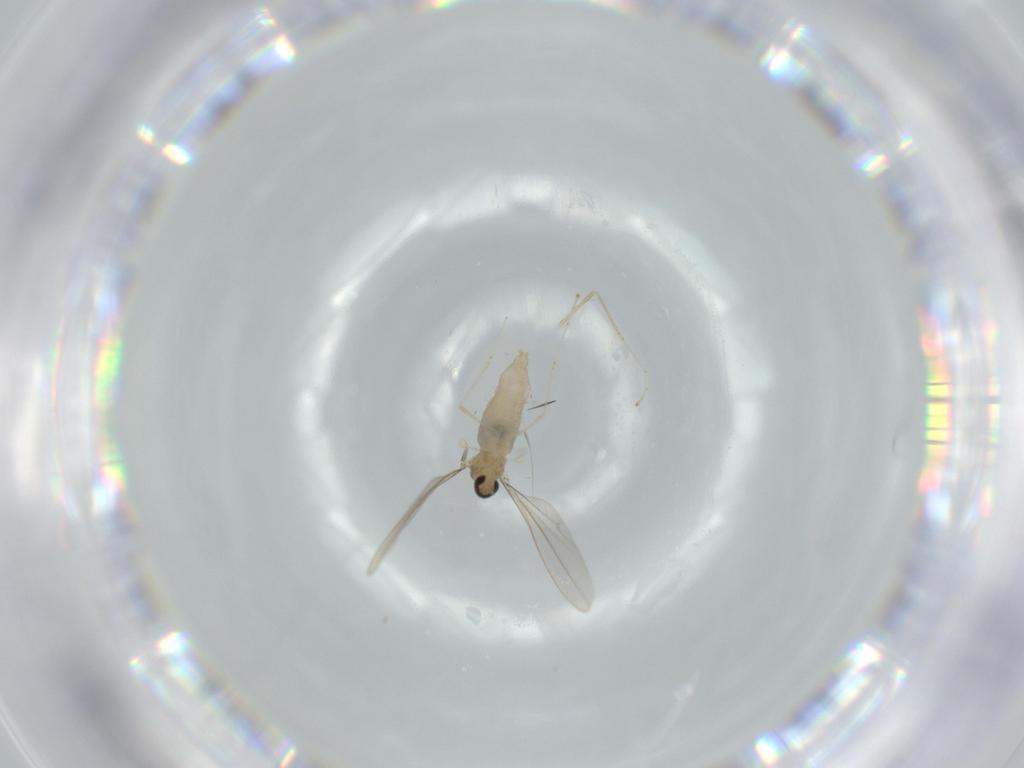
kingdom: Animalia
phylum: Arthropoda
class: Insecta
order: Diptera
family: Cecidomyiidae
